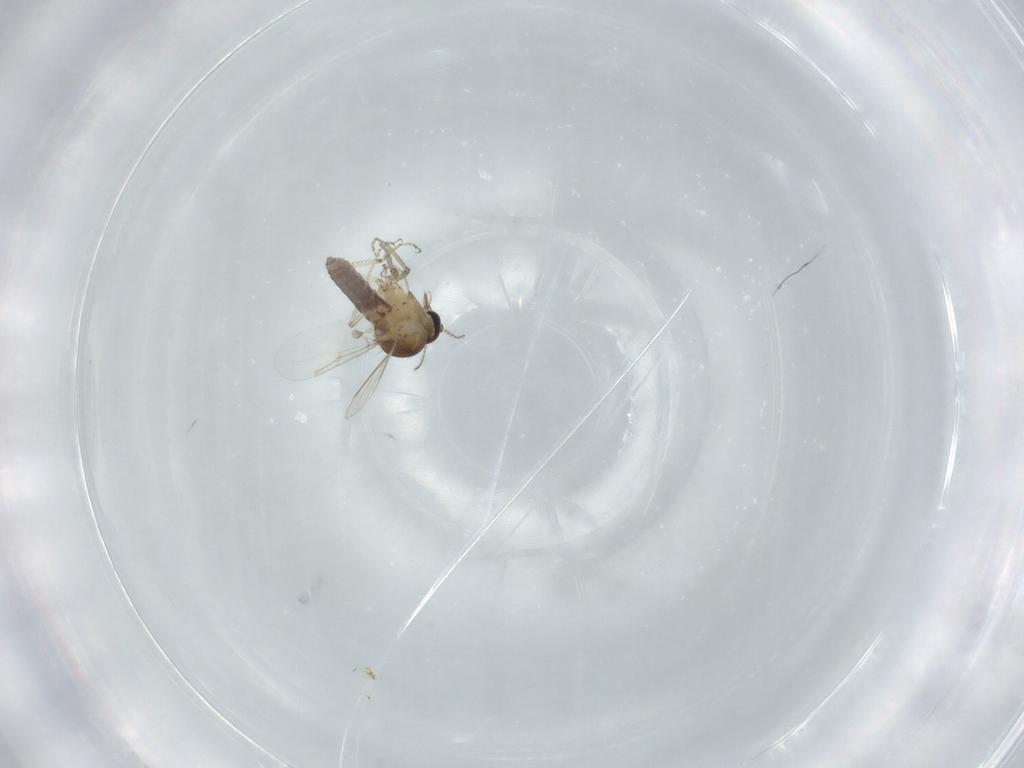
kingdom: Animalia
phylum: Arthropoda
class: Insecta
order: Diptera
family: Ceratopogonidae
